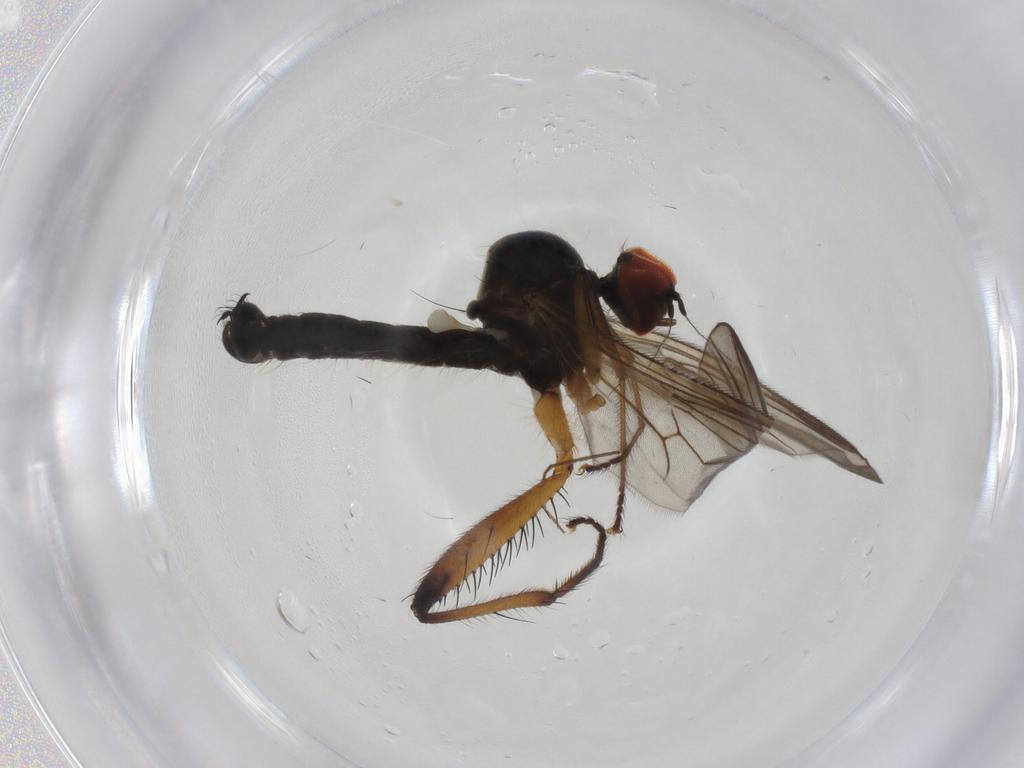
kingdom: Animalia
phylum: Arthropoda
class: Insecta
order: Diptera
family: Hybotidae
